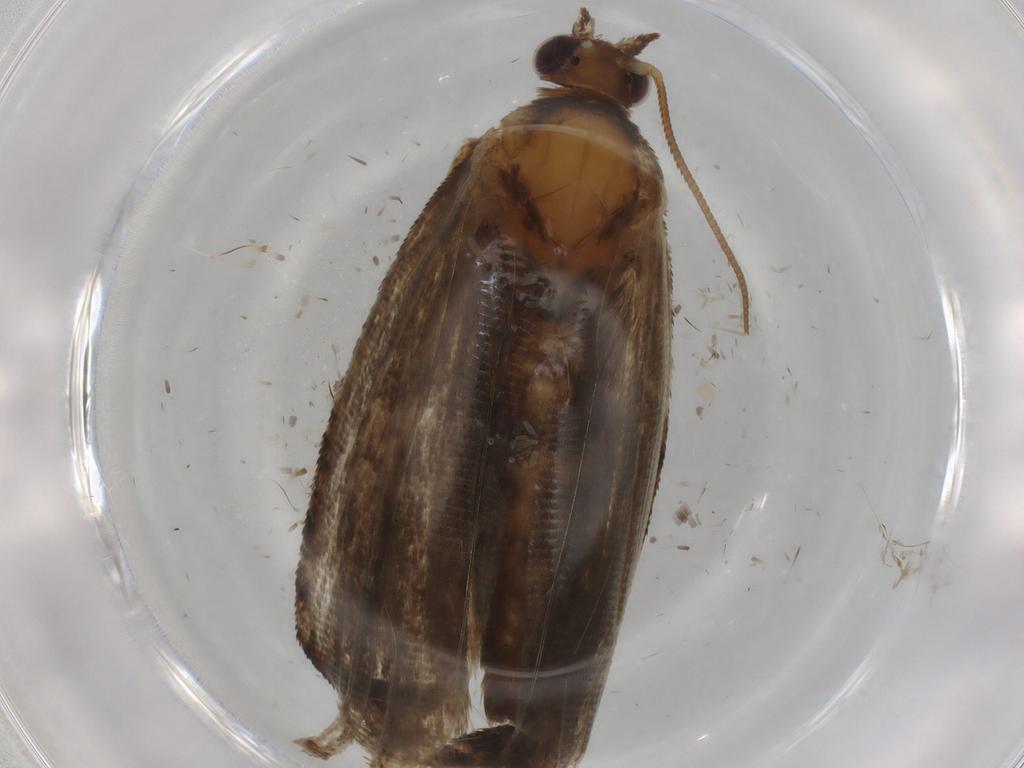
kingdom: Animalia
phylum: Arthropoda
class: Insecta
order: Lepidoptera
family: Tortricidae
